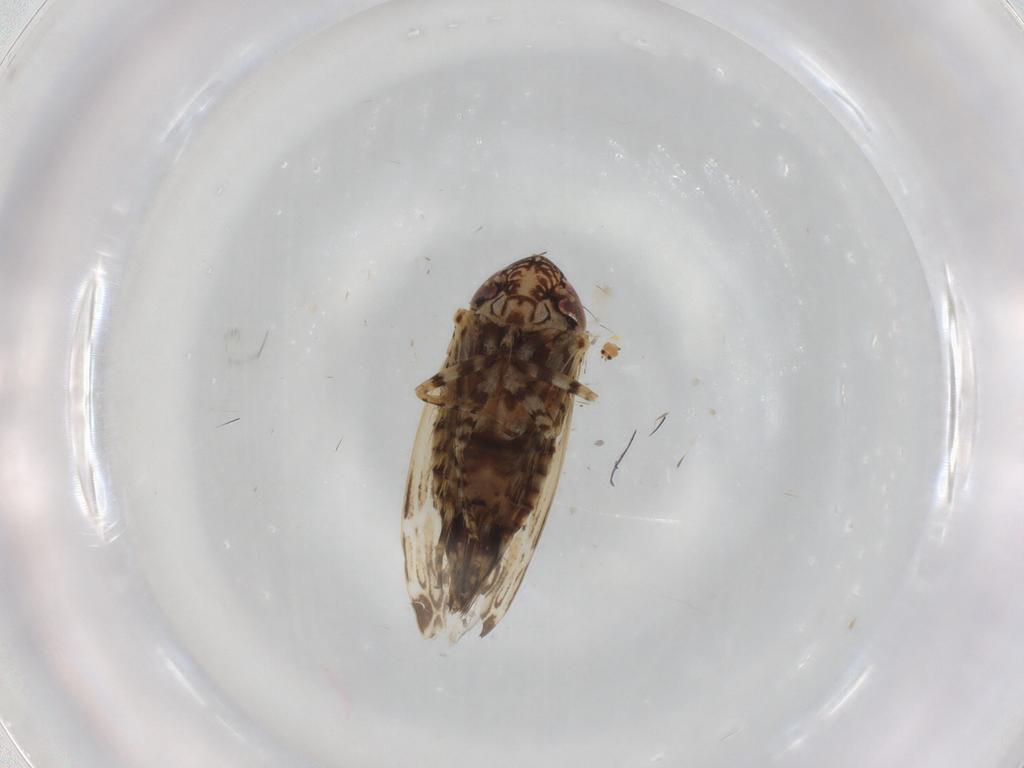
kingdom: Animalia
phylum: Arthropoda
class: Insecta
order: Hemiptera
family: Cicadellidae
